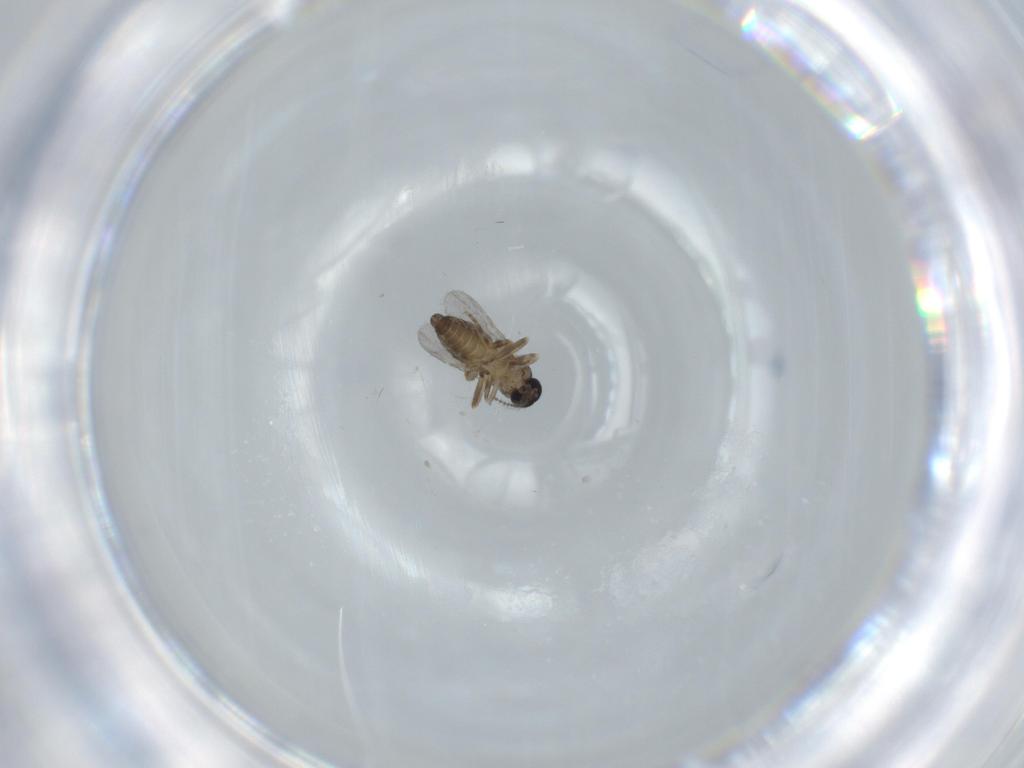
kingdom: Animalia
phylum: Arthropoda
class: Insecta
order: Diptera
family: Ceratopogonidae
